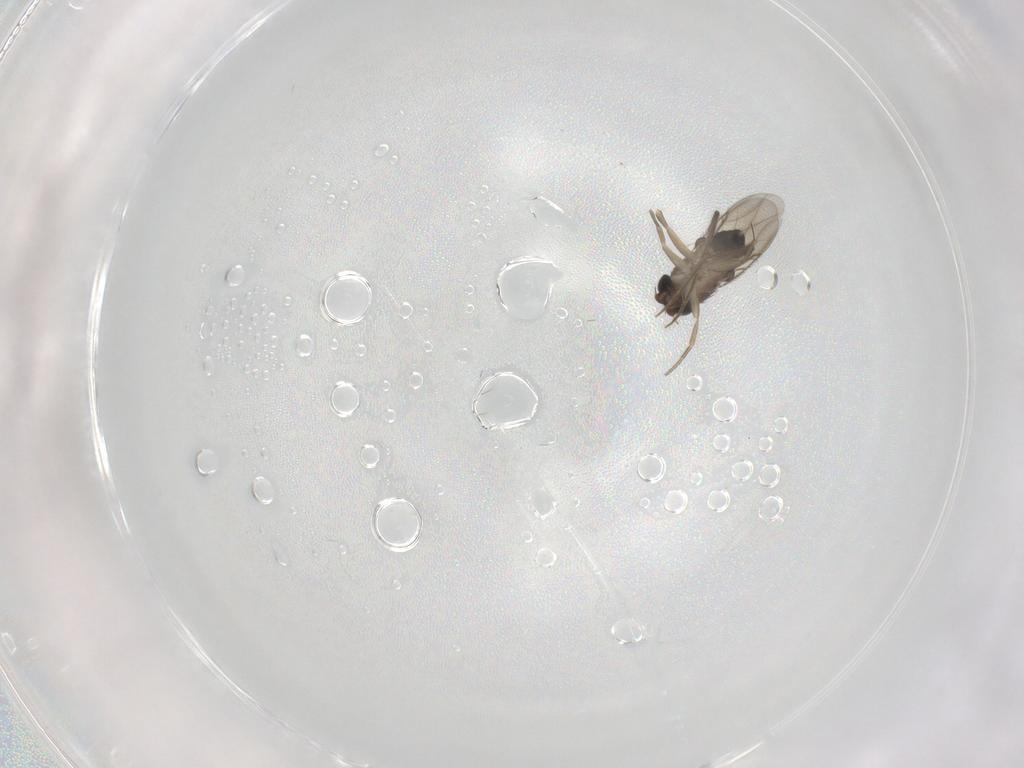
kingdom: Animalia
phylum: Arthropoda
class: Insecta
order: Diptera
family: Phoridae
